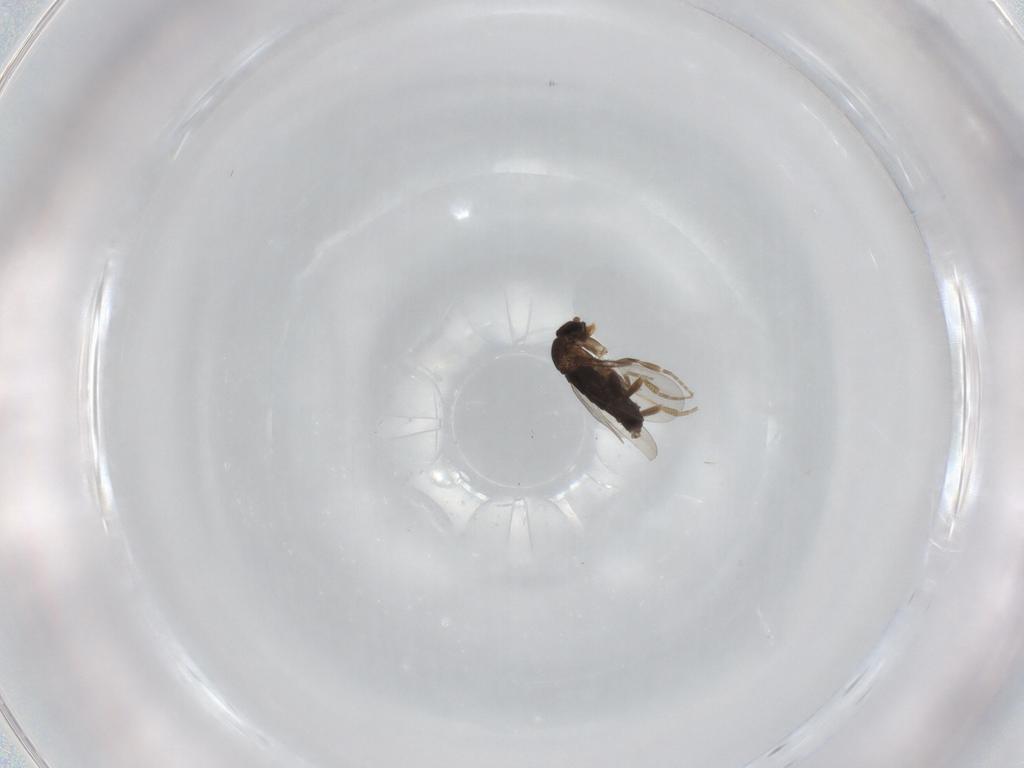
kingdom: Animalia
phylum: Arthropoda
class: Insecta
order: Diptera
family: Phoridae
